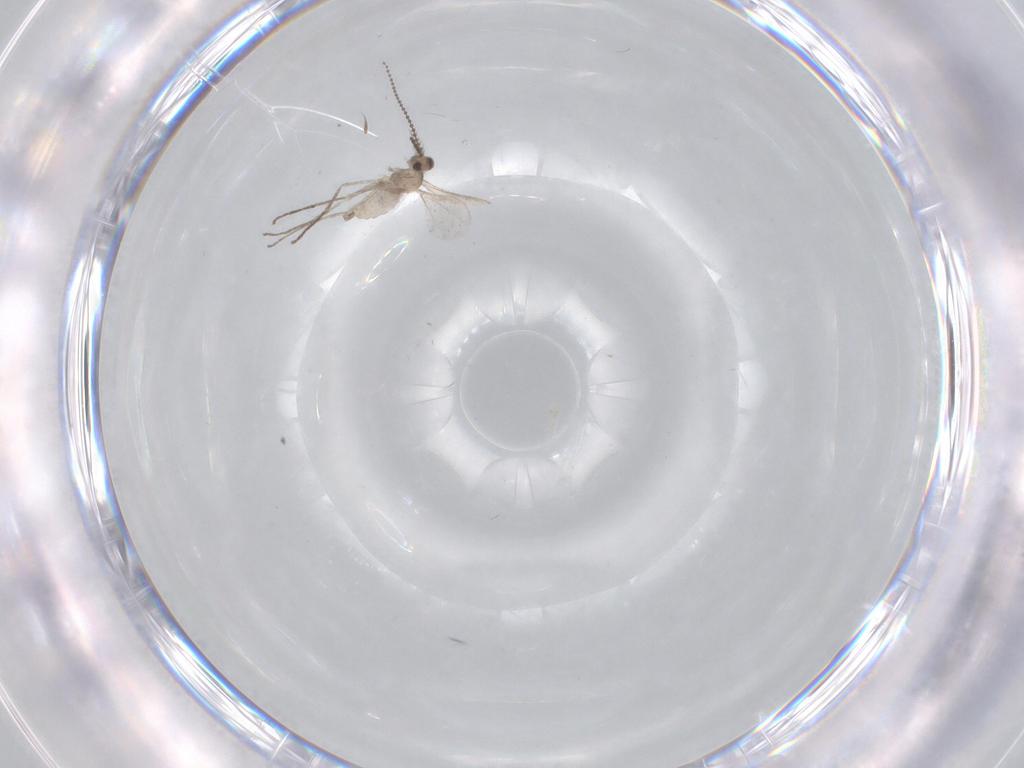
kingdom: Animalia
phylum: Arthropoda
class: Insecta
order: Diptera
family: Cecidomyiidae
